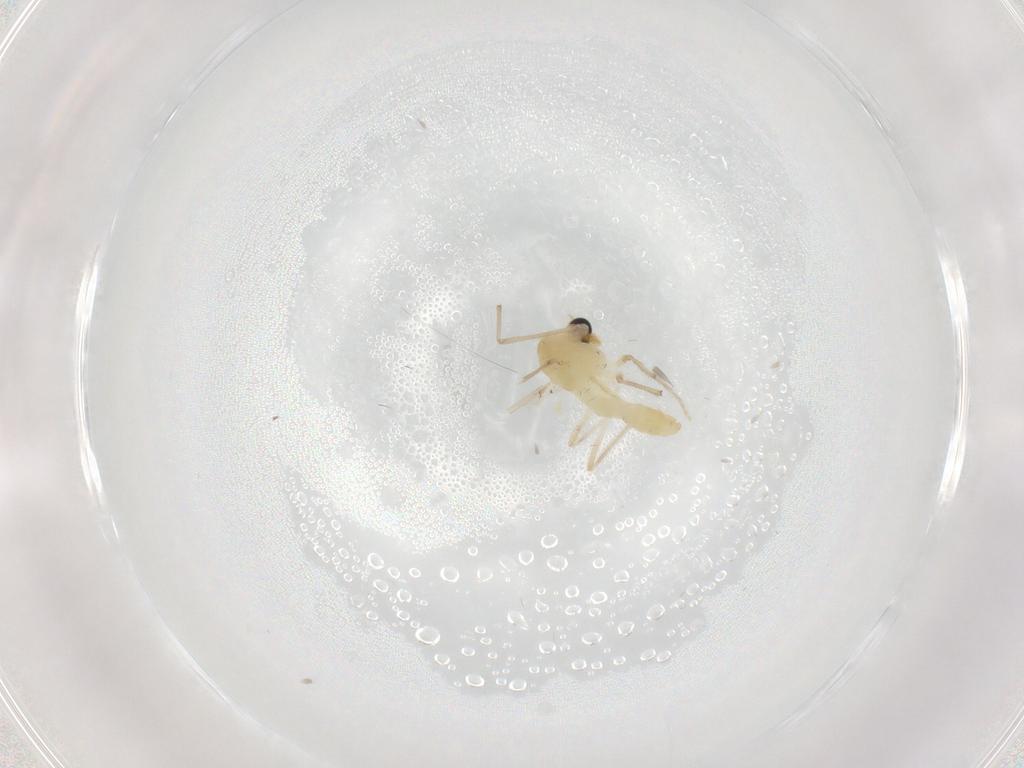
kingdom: Animalia
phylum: Arthropoda
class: Insecta
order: Diptera
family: Chironomidae
